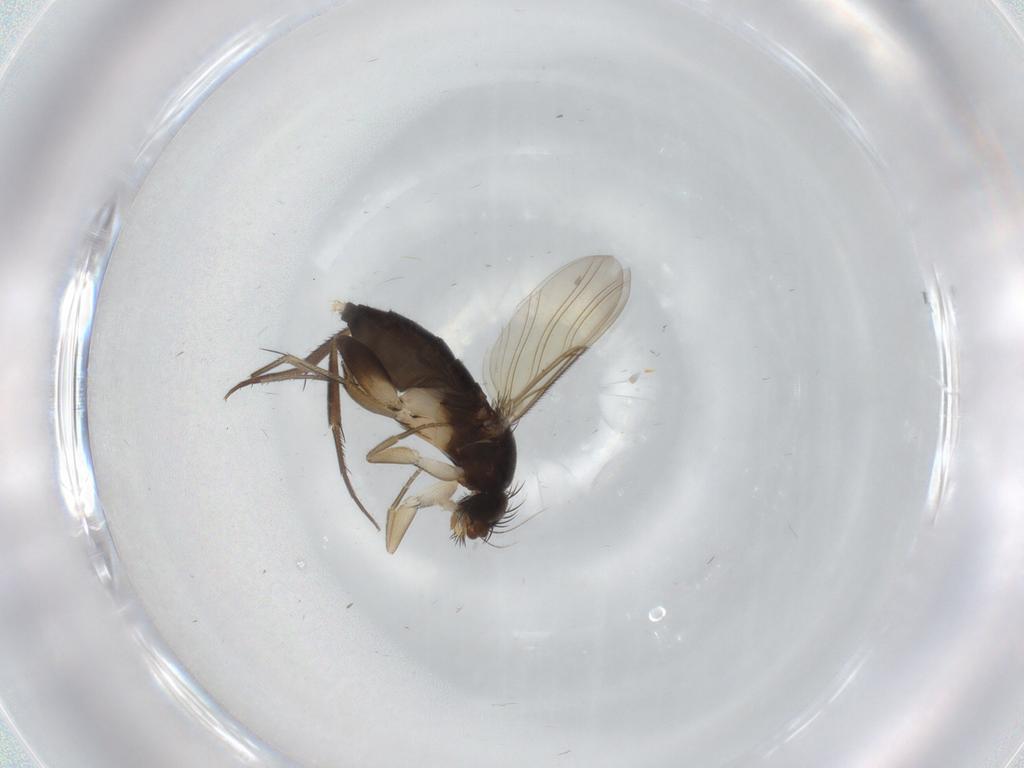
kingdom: Animalia
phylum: Arthropoda
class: Insecta
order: Diptera
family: Phoridae
